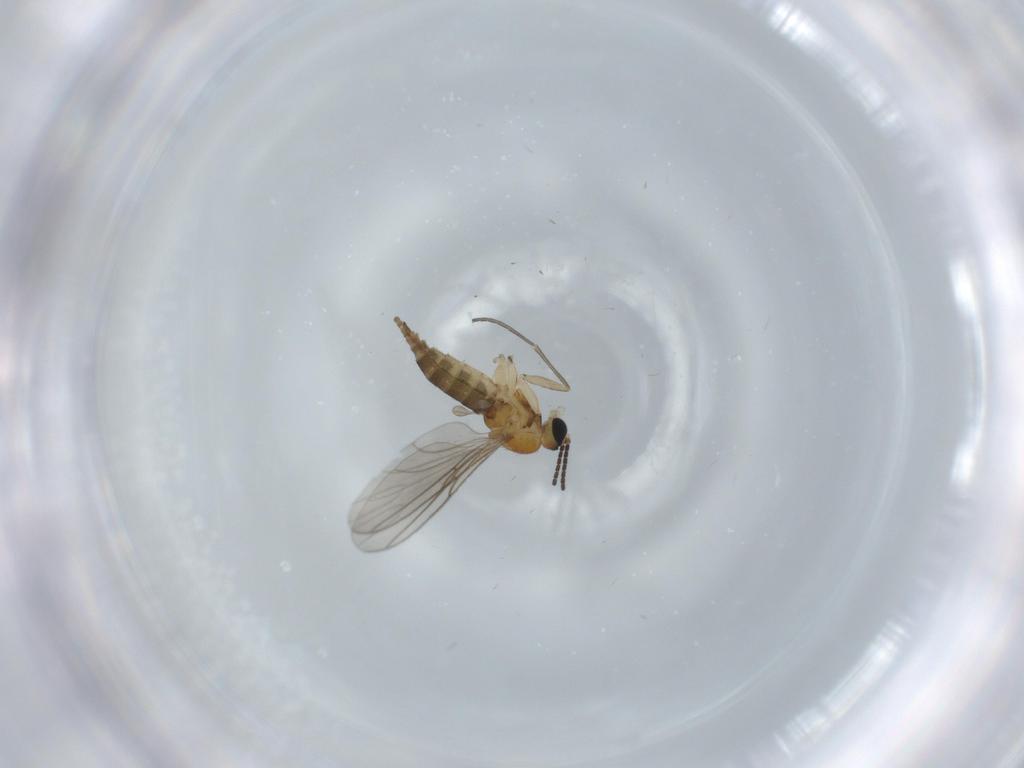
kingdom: Animalia
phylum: Arthropoda
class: Insecta
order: Diptera
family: Sciaridae
